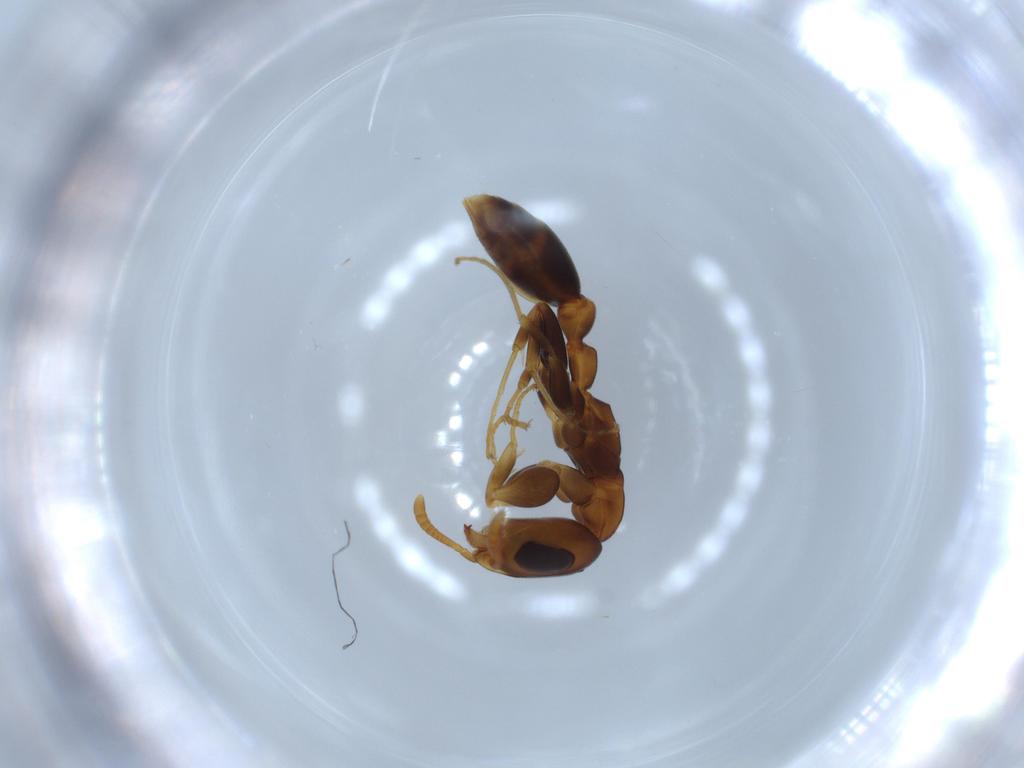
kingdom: Animalia
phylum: Arthropoda
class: Insecta
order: Hymenoptera
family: Formicidae
